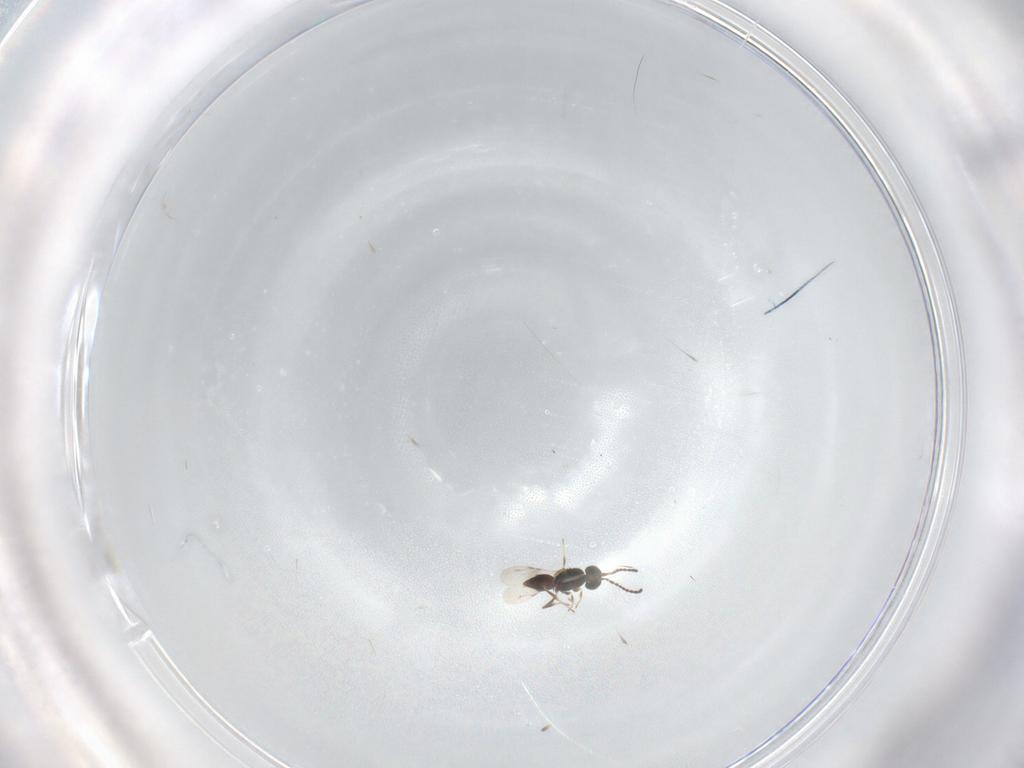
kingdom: Animalia
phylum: Arthropoda
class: Insecta
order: Hymenoptera
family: Ceraphronidae
